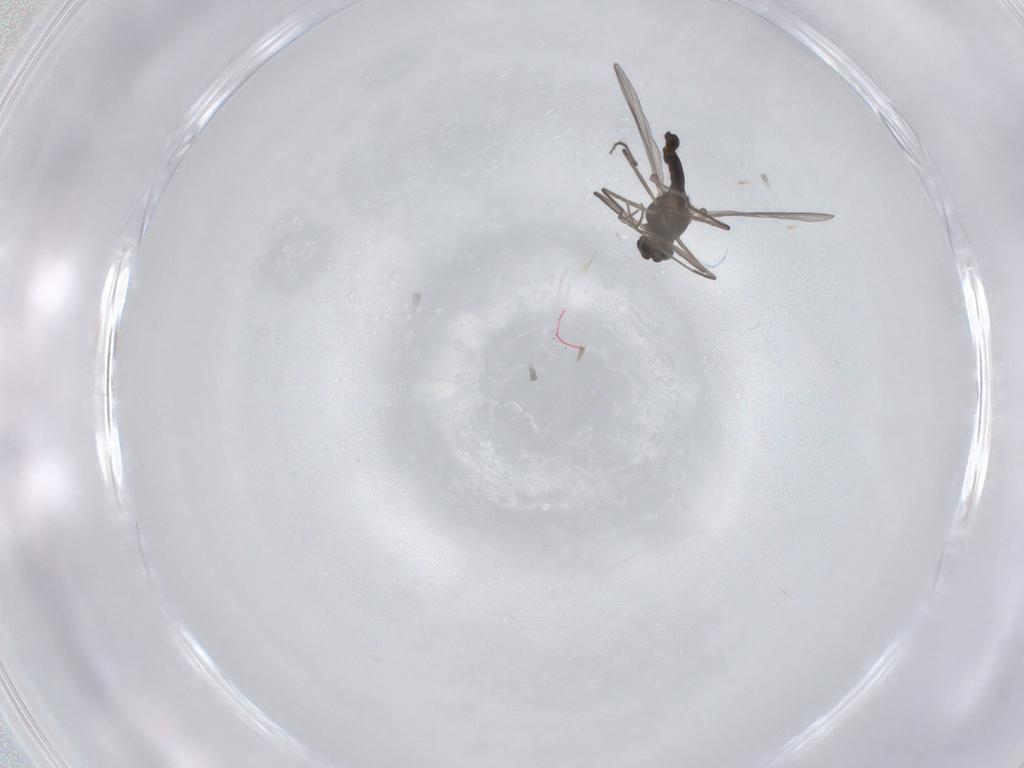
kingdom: Animalia
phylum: Arthropoda
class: Insecta
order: Diptera
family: Chironomidae
